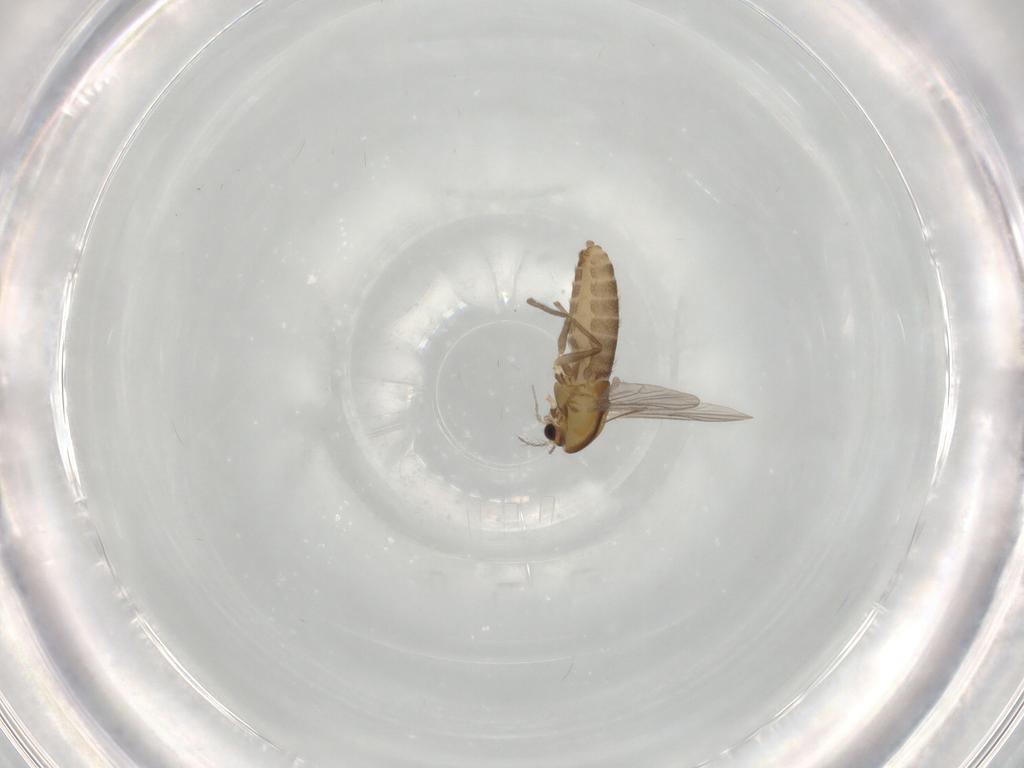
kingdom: Animalia
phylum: Arthropoda
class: Insecta
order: Diptera
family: Chironomidae
